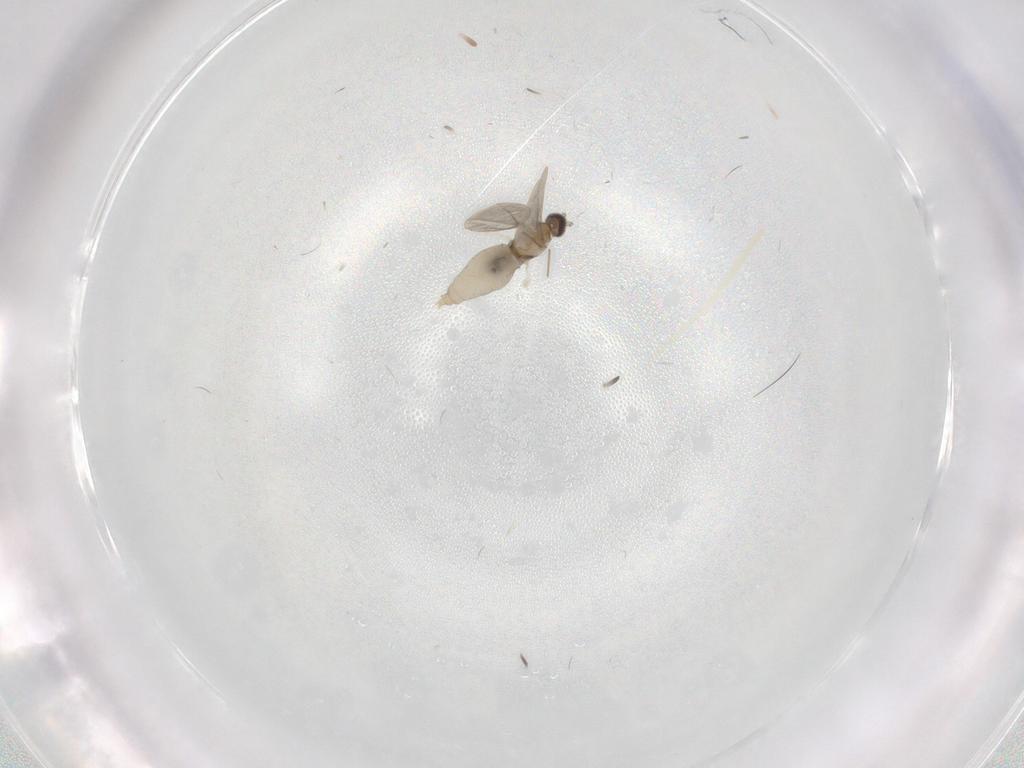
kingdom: Animalia
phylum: Arthropoda
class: Insecta
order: Diptera
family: Cecidomyiidae
